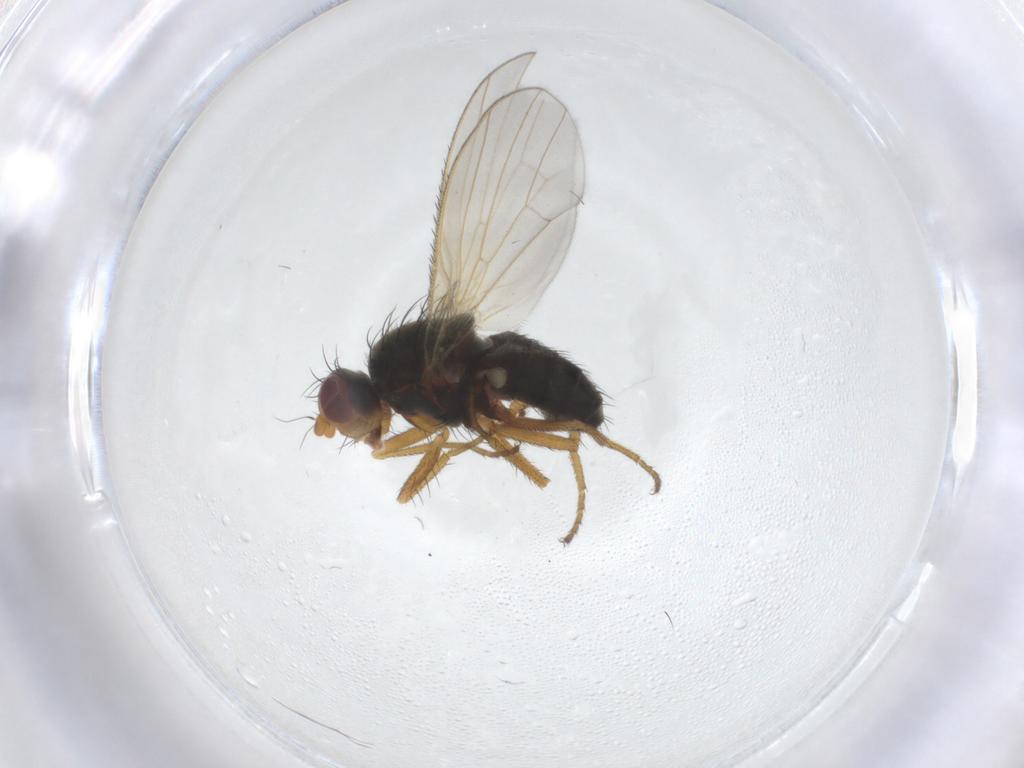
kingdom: Animalia
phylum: Arthropoda
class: Insecta
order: Diptera
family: Heleomyzidae
